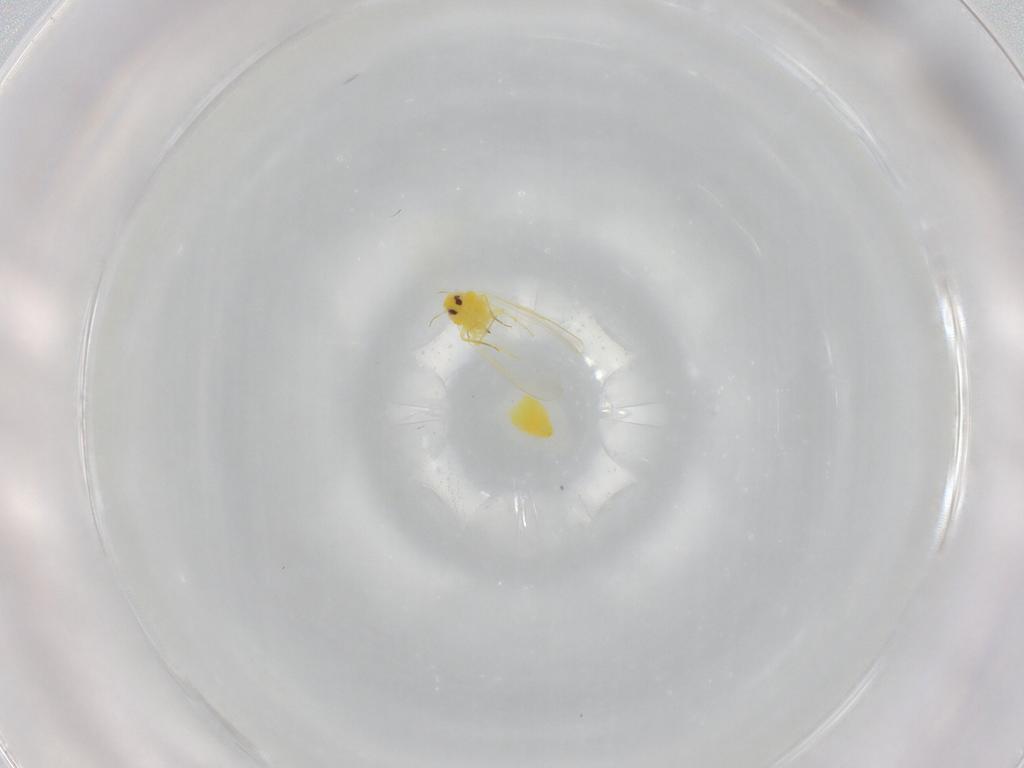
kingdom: Animalia
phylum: Arthropoda
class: Insecta
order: Hemiptera
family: Aleyrodidae
